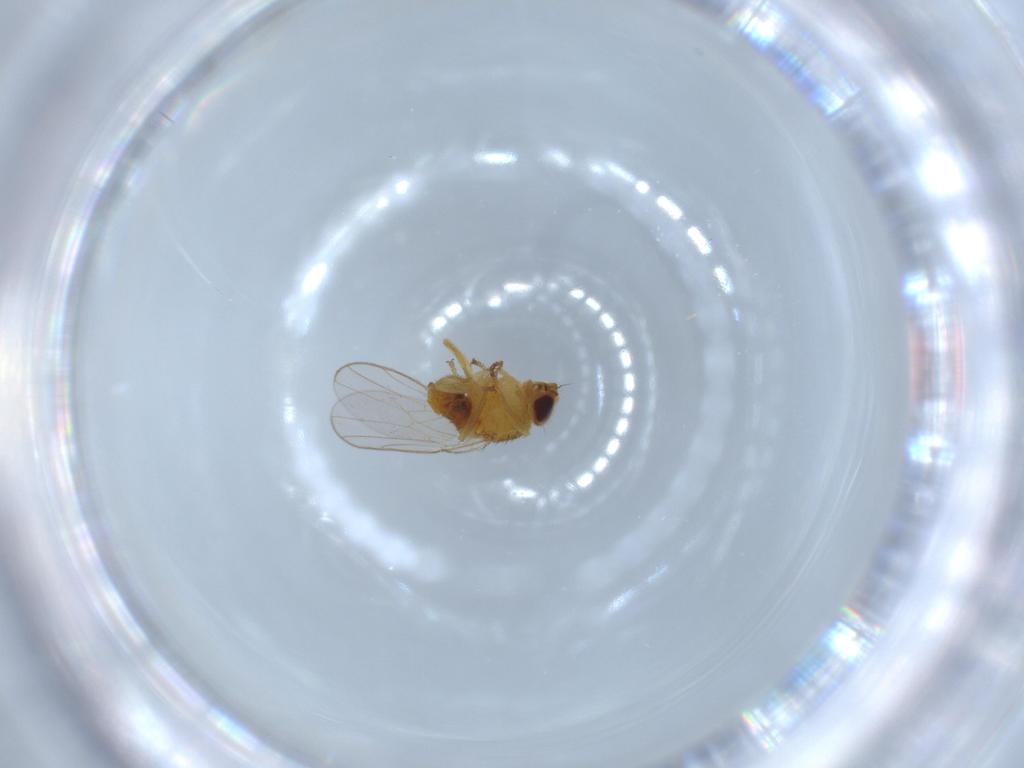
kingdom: Animalia
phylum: Arthropoda
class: Insecta
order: Diptera
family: Chloropidae
